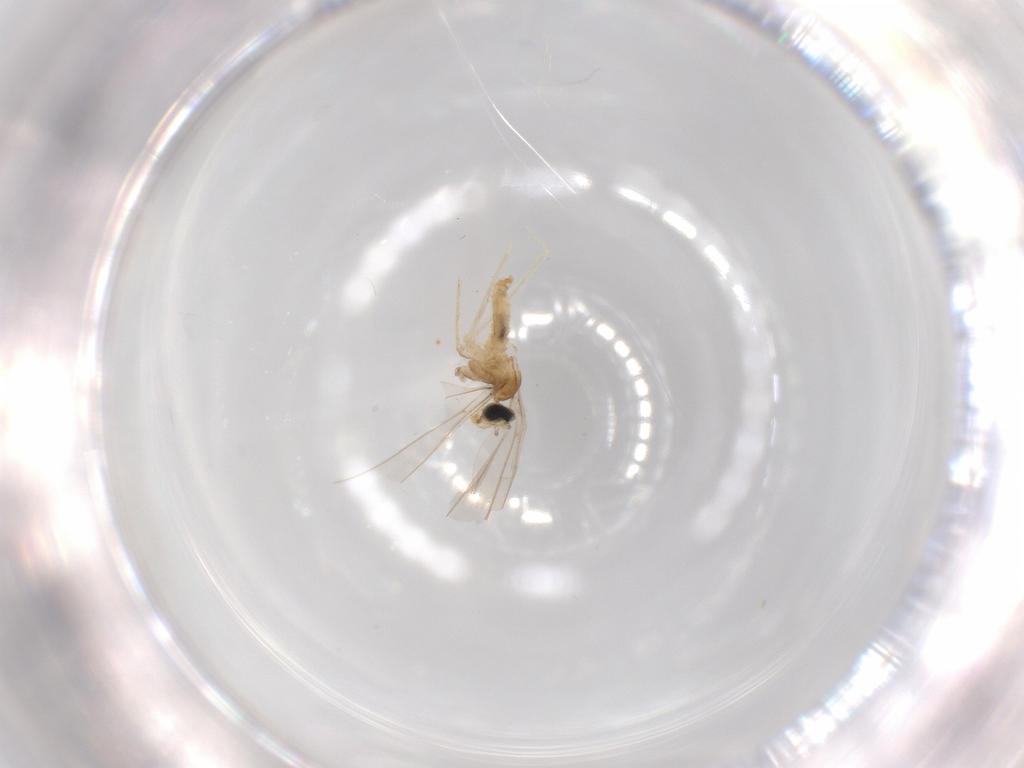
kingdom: Animalia
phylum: Arthropoda
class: Insecta
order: Diptera
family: Cecidomyiidae
